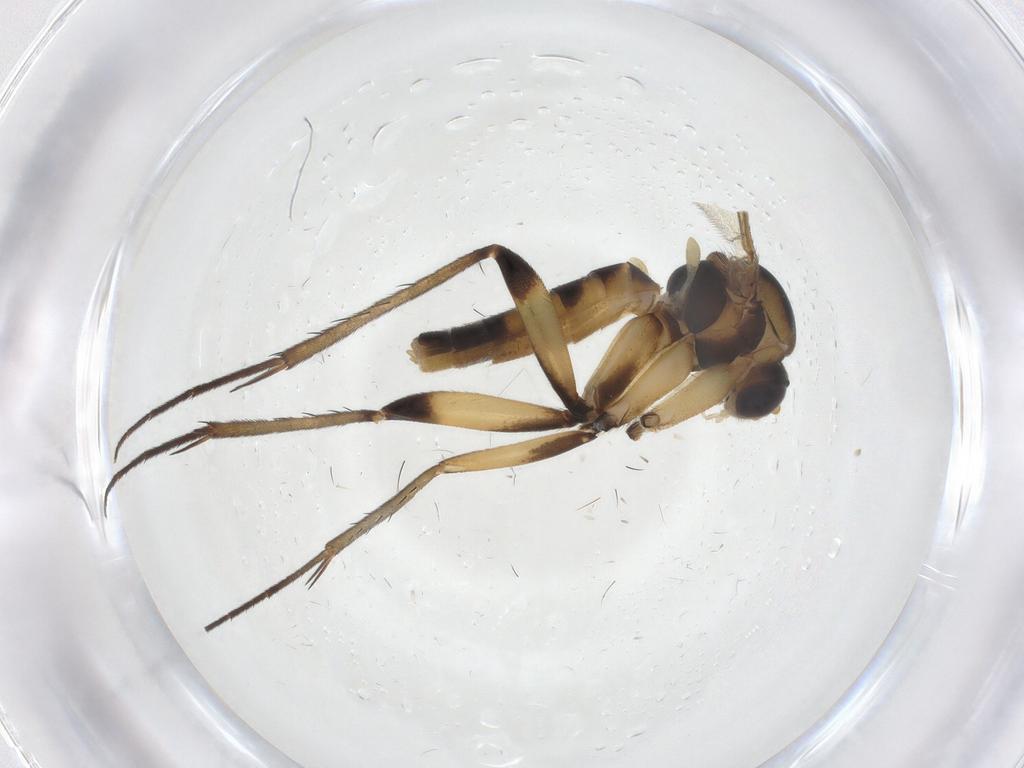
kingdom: Animalia
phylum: Arthropoda
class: Insecta
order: Diptera
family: Mycetophilidae
